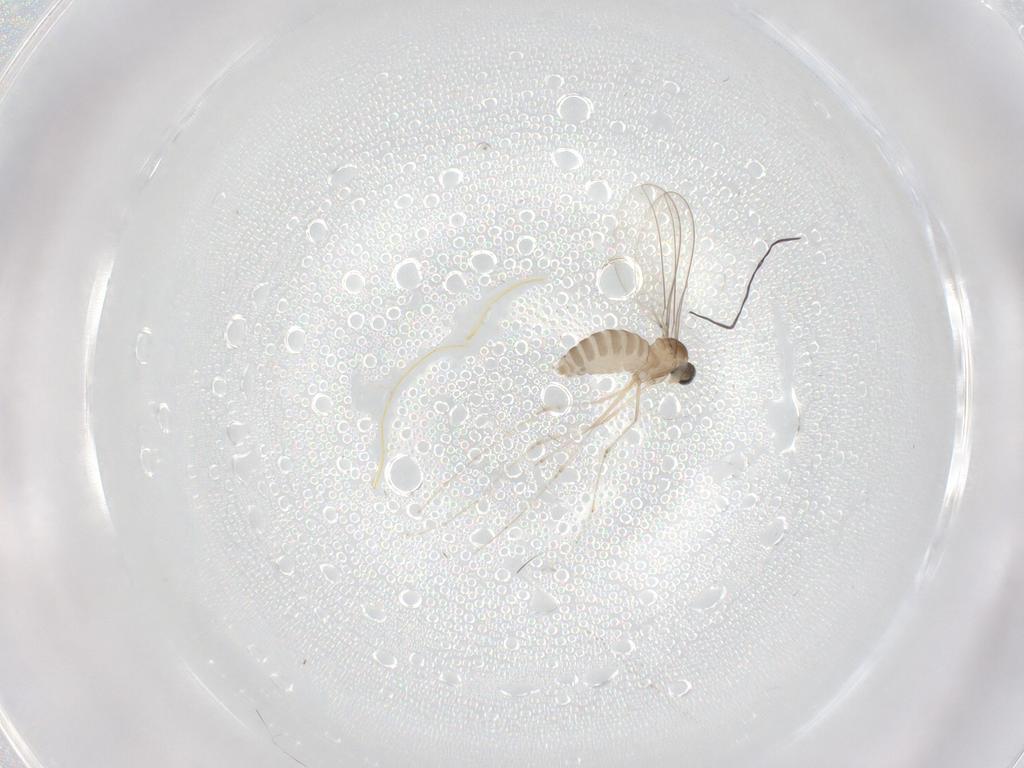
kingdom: Animalia
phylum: Arthropoda
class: Insecta
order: Diptera
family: Cecidomyiidae
